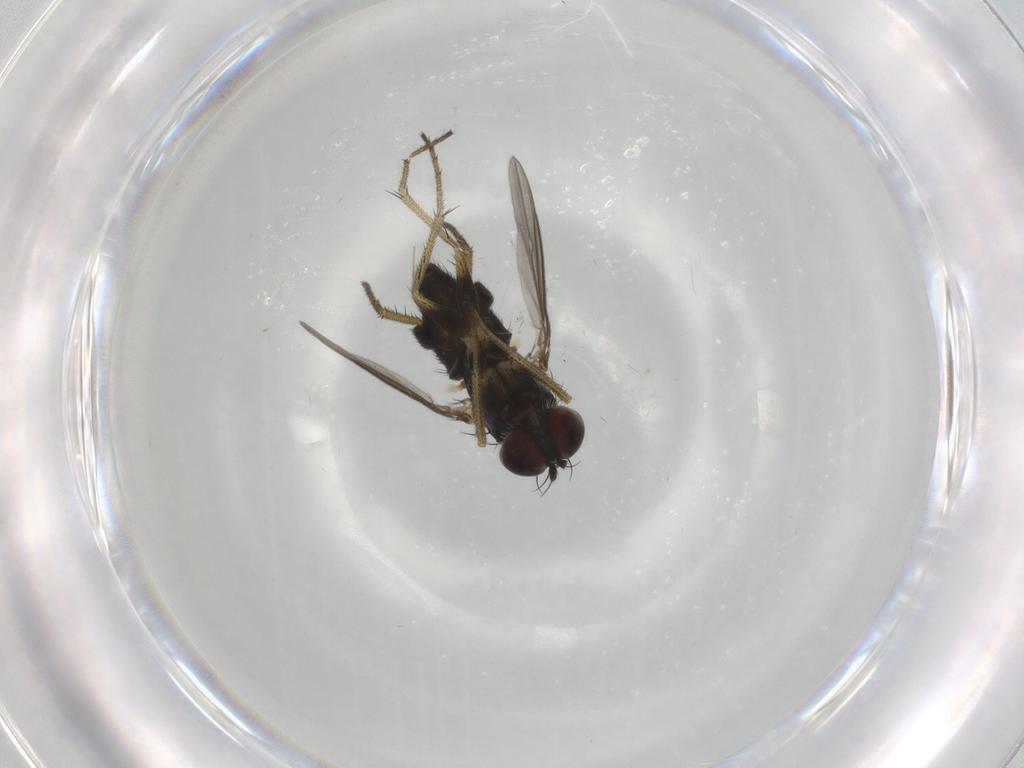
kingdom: Animalia
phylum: Arthropoda
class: Insecta
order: Diptera
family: Dolichopodidae
